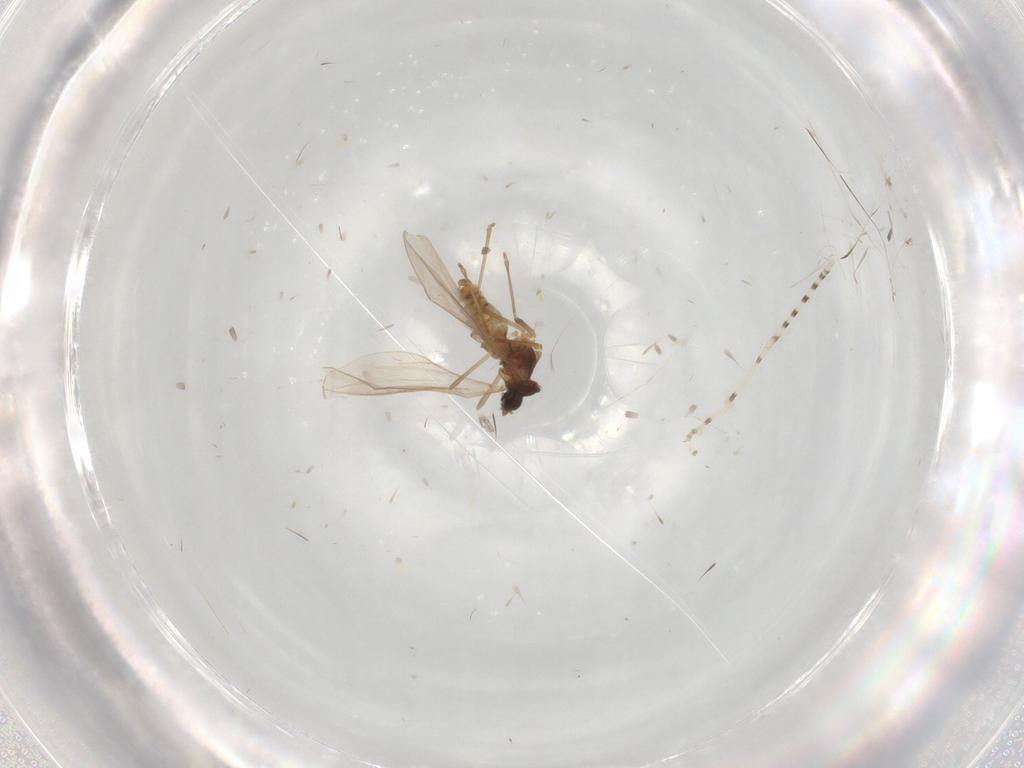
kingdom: Animalia
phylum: Arthropoda
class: Insecta
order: Diptera
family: Cecidomyiidae
